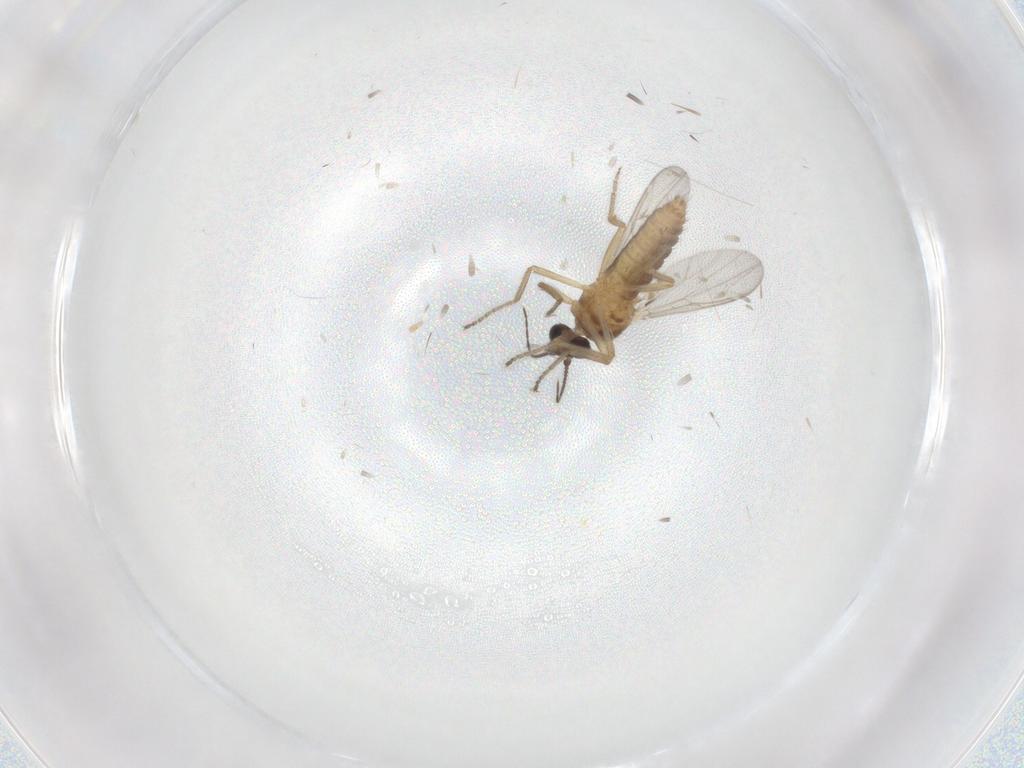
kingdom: Animalia
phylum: Arthropoda
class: Insecta
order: Diptera
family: Ceratopogonidae
